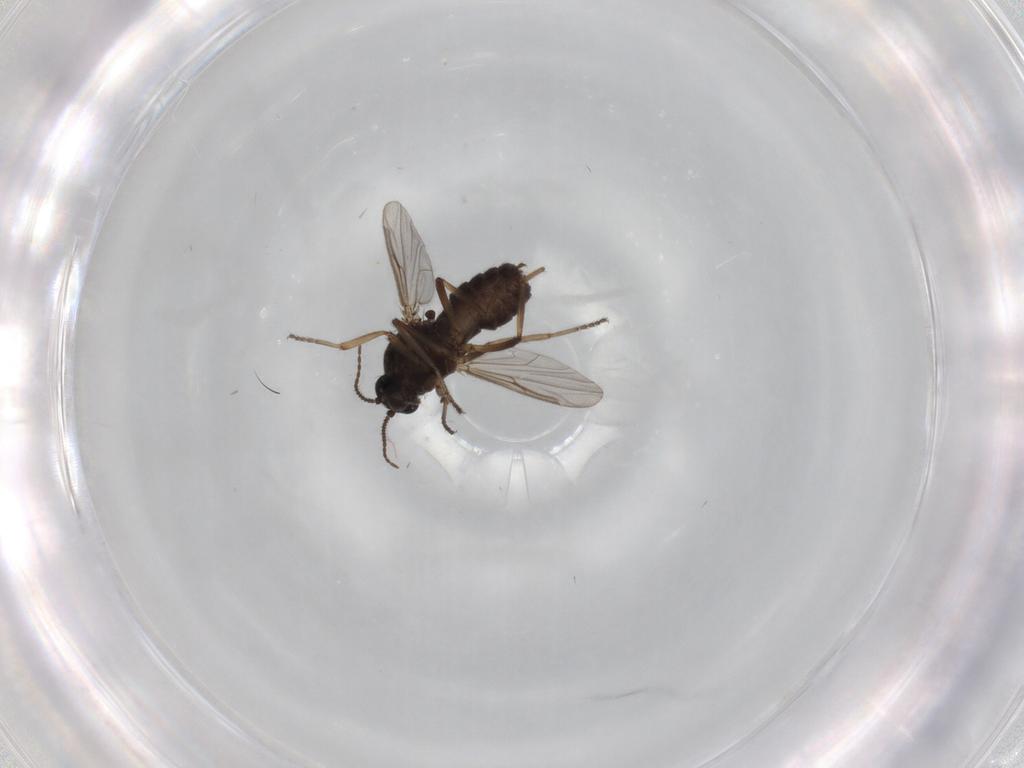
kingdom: Animalia
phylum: Arthropoda
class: Insecta
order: Diptera
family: Ceratopogonidae
